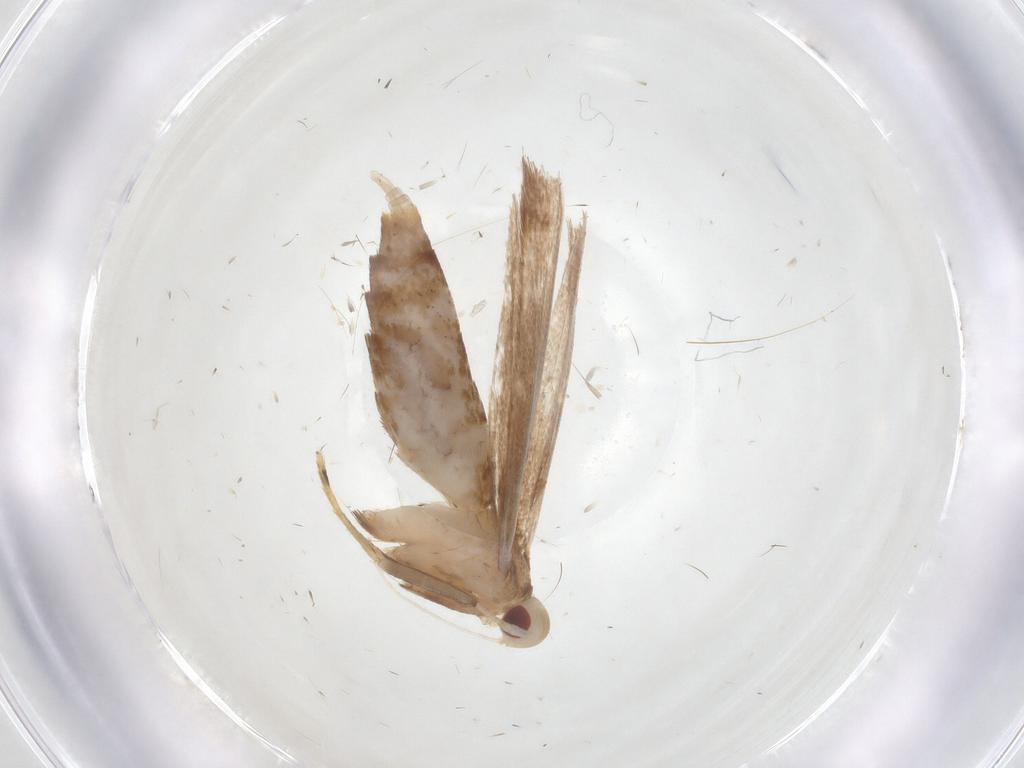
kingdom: Animalia
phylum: Arthropoda
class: Insecta
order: Lepidoptera
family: Cosmopterigidae
